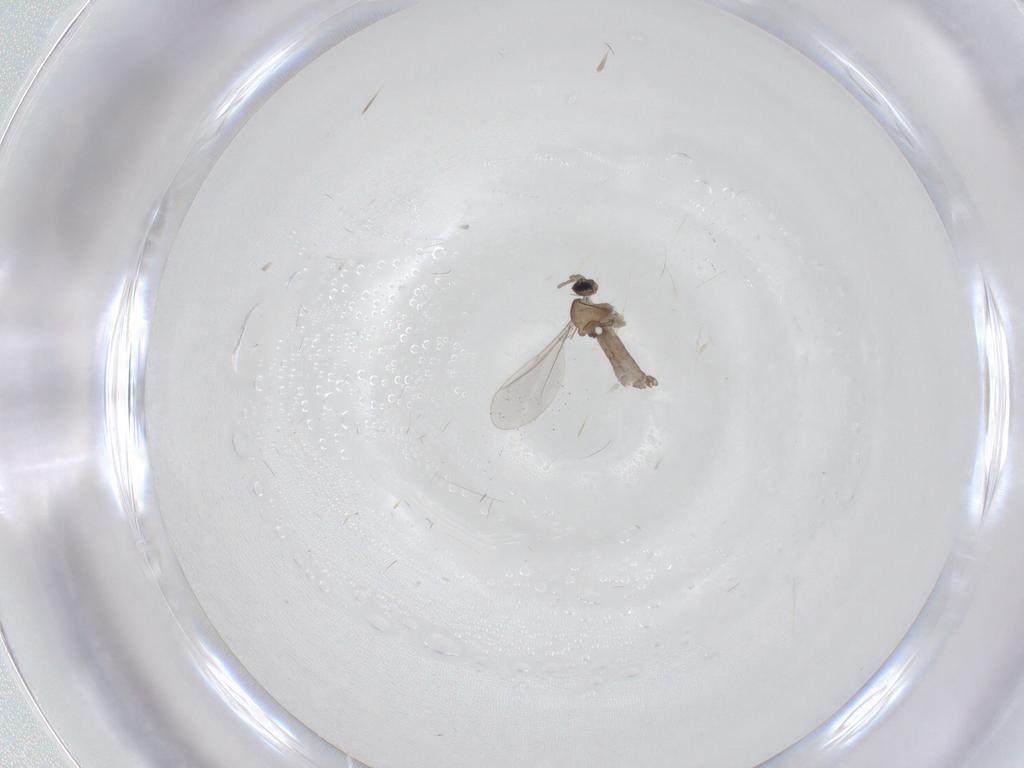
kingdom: Animalia
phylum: Arthropoda
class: Insecta
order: Diptera
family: Cecidomyiidae
